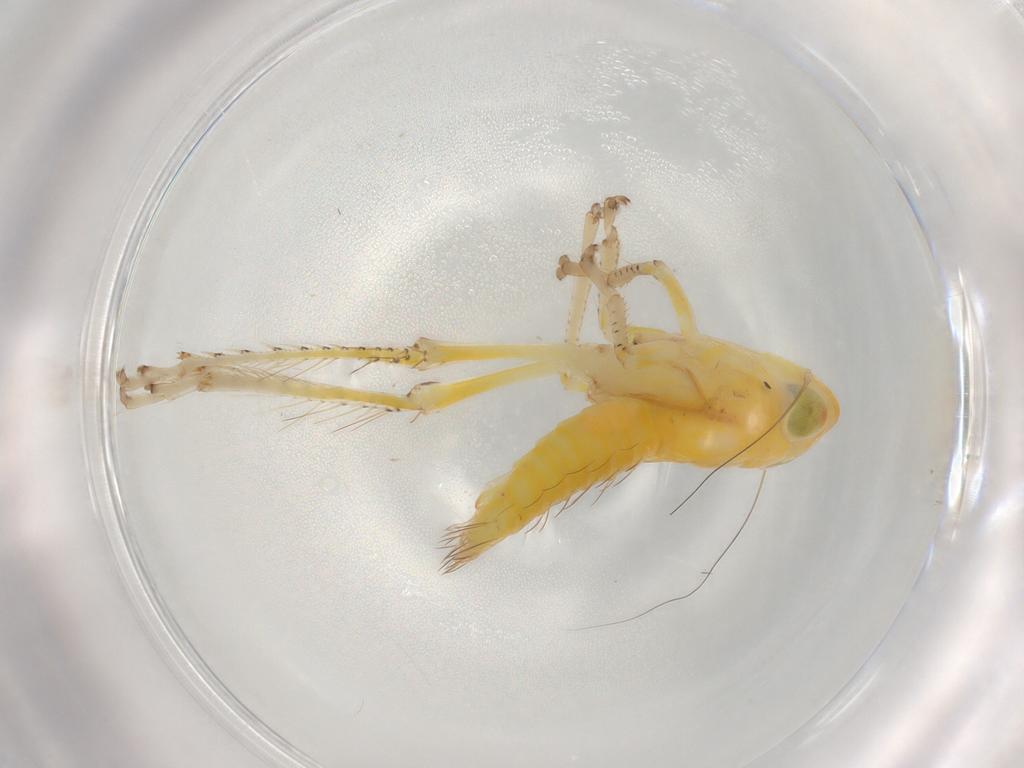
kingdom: Animalia
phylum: Arthropoda
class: Insecta
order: Hemiptera
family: Cicadellidae
